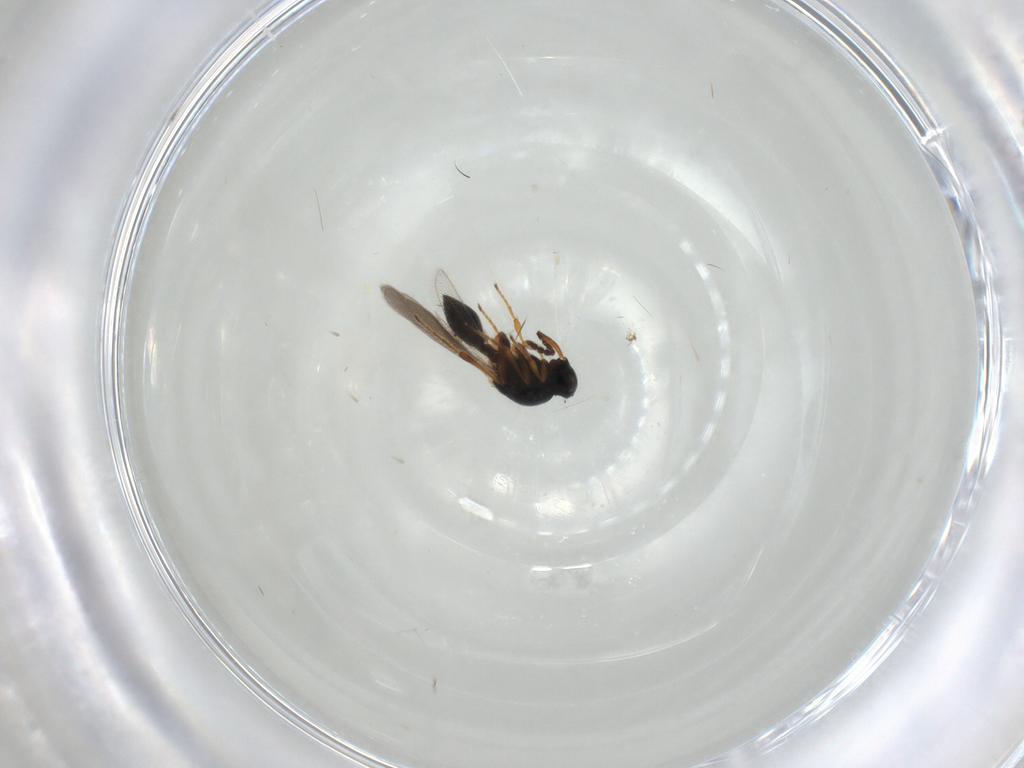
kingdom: Animalia
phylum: Arthropoda
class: Insecta
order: Hymenoptera
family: Platygastridae
